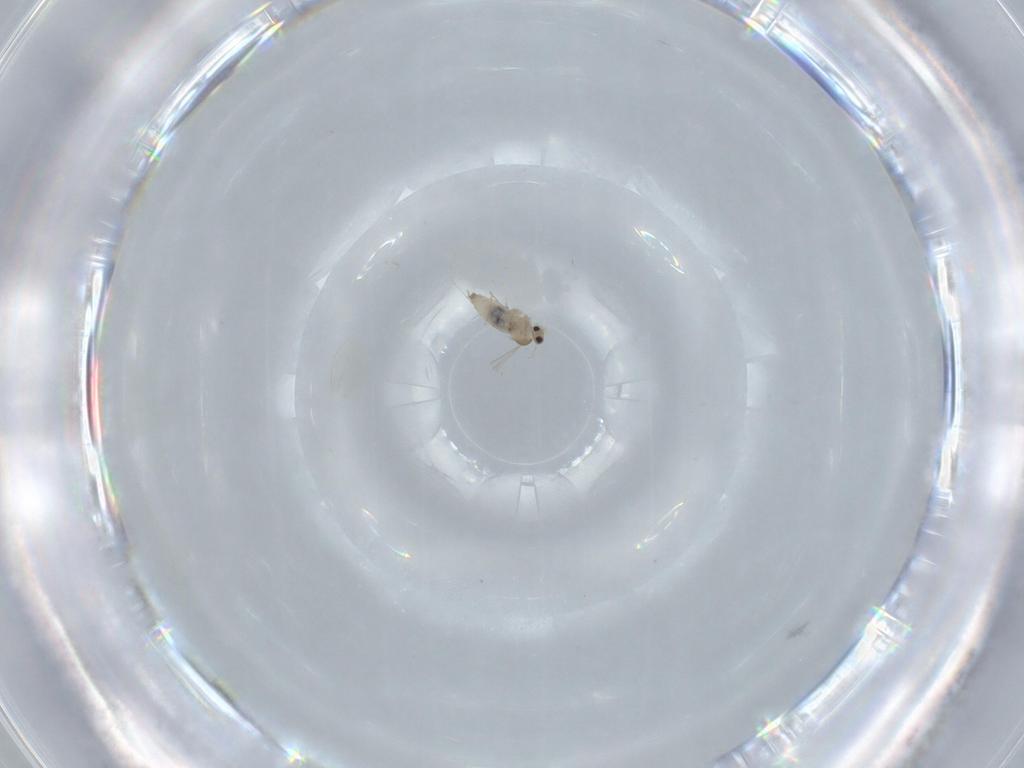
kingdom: Animalia
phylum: Arthropoda
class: Insecta
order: Diptera
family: Cecidomyiidae
